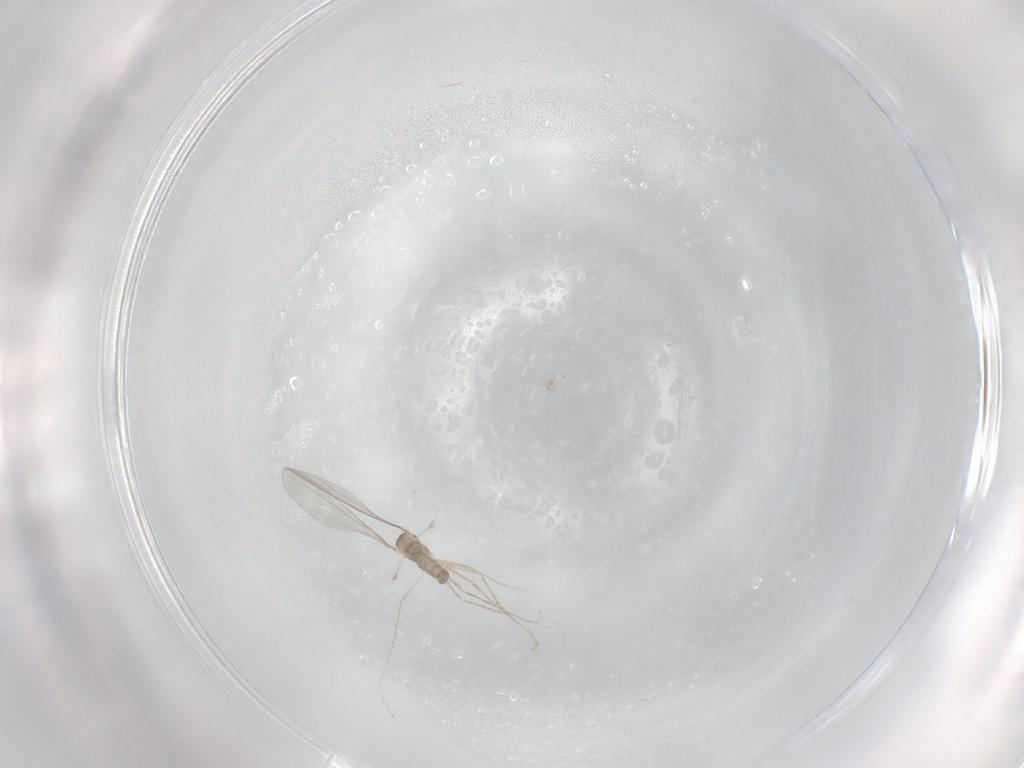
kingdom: Animalia
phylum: Arthropoda
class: Insecta
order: Diptera
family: Cecidomyiidae
